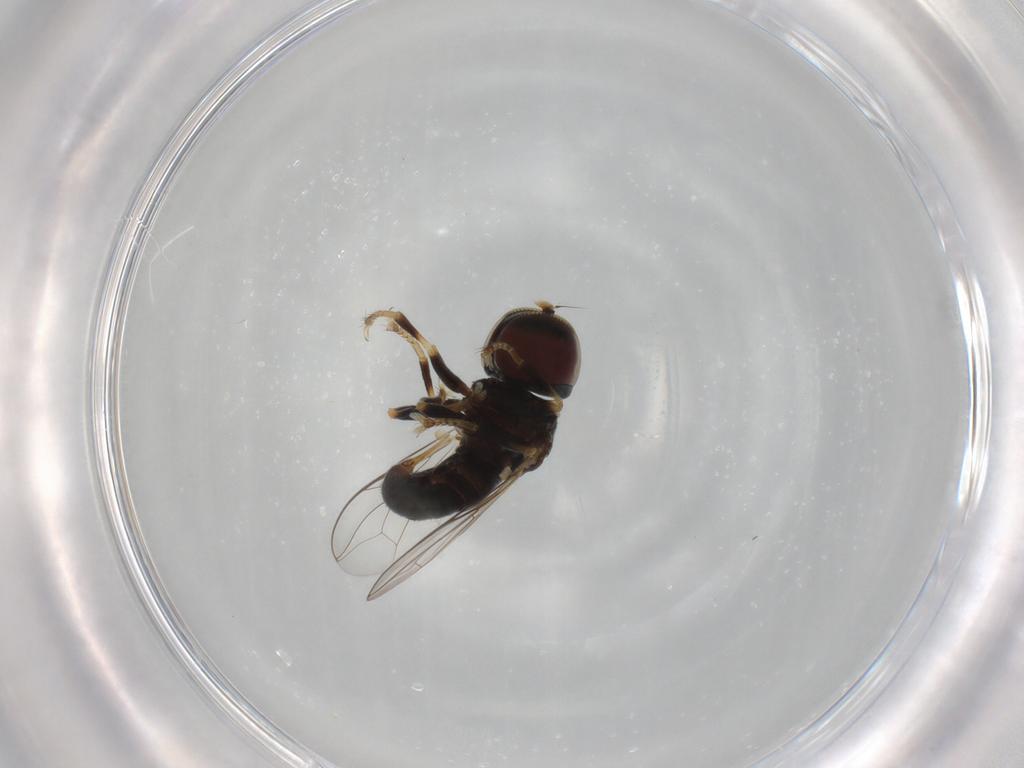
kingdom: Animalia
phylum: Arthropoda
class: Insecta
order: Diptera
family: Pipunculidae
